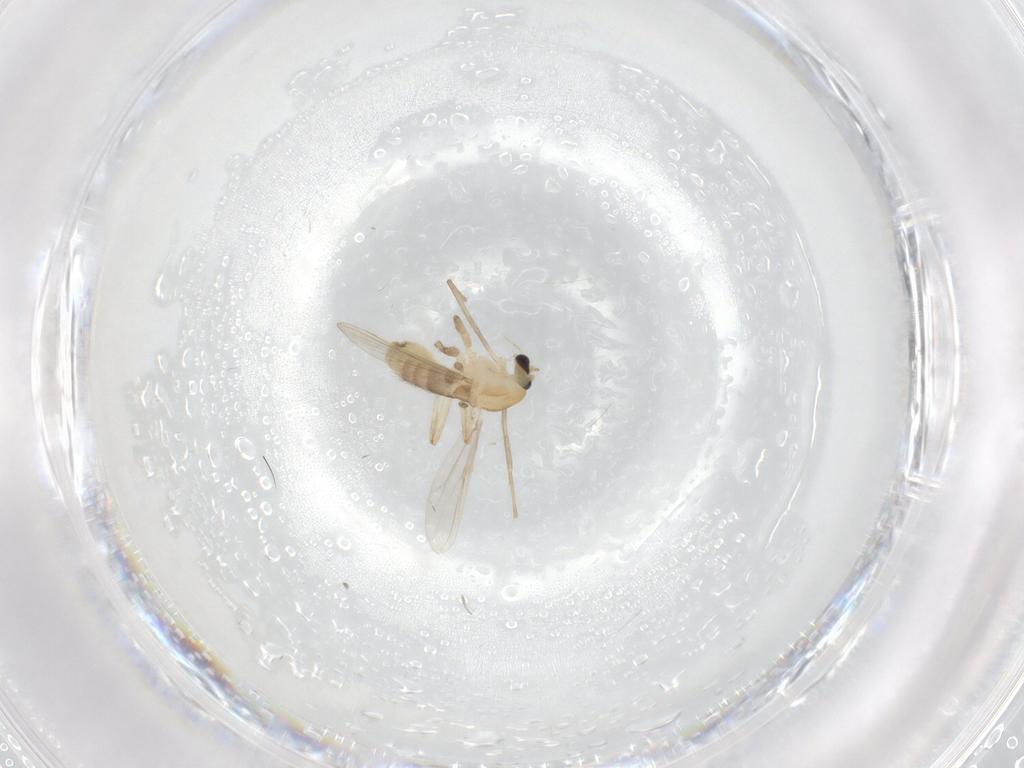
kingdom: Animalia
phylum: Arthropoda
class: Insecta
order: Diptera
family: Chironomidae
